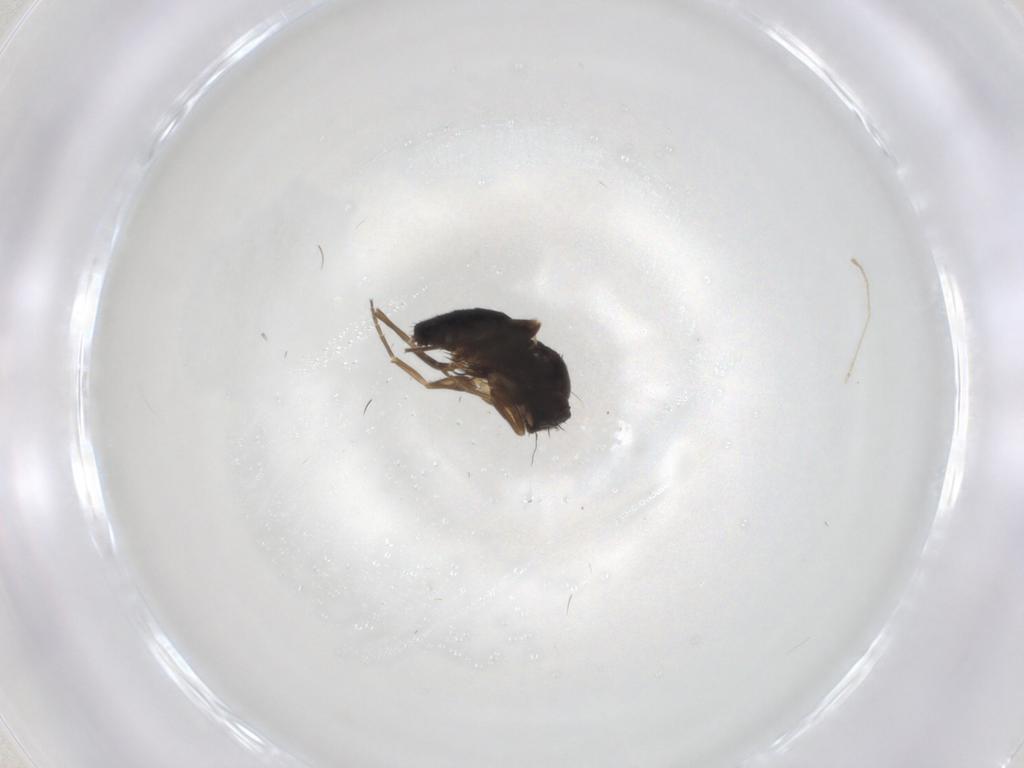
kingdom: Animalia
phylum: Arthropoda
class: Insecta
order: Diptera
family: Phoridae
